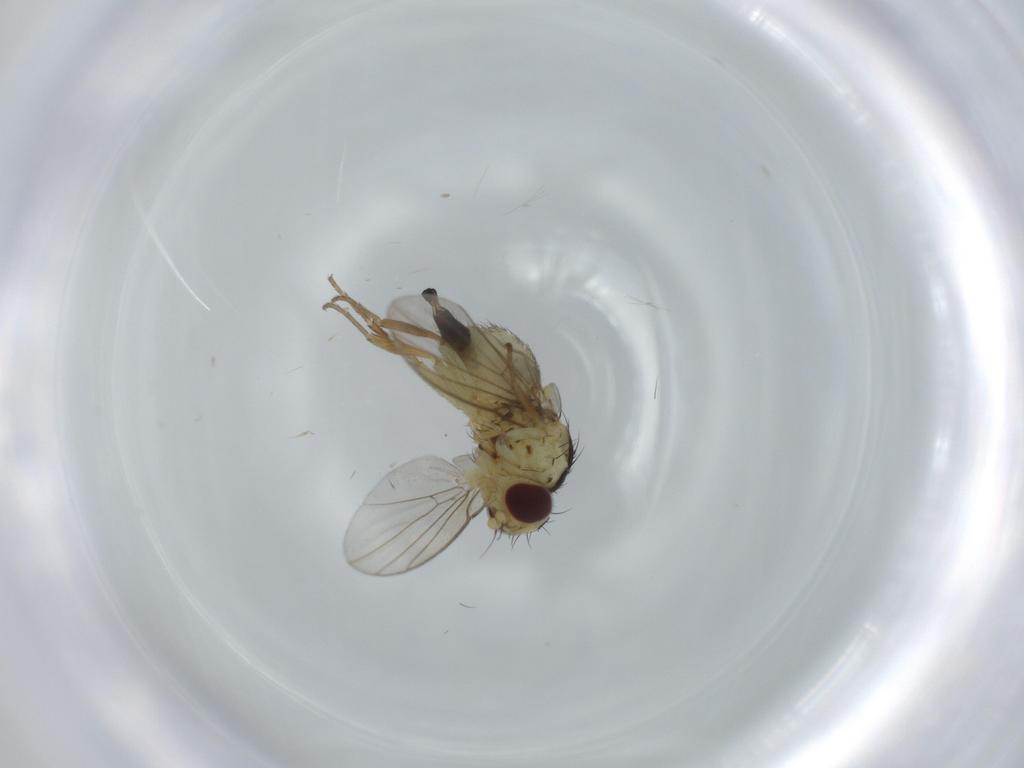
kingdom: Animalia
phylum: Arthropoda
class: Insecta
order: Diptera
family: Agromyzidae
